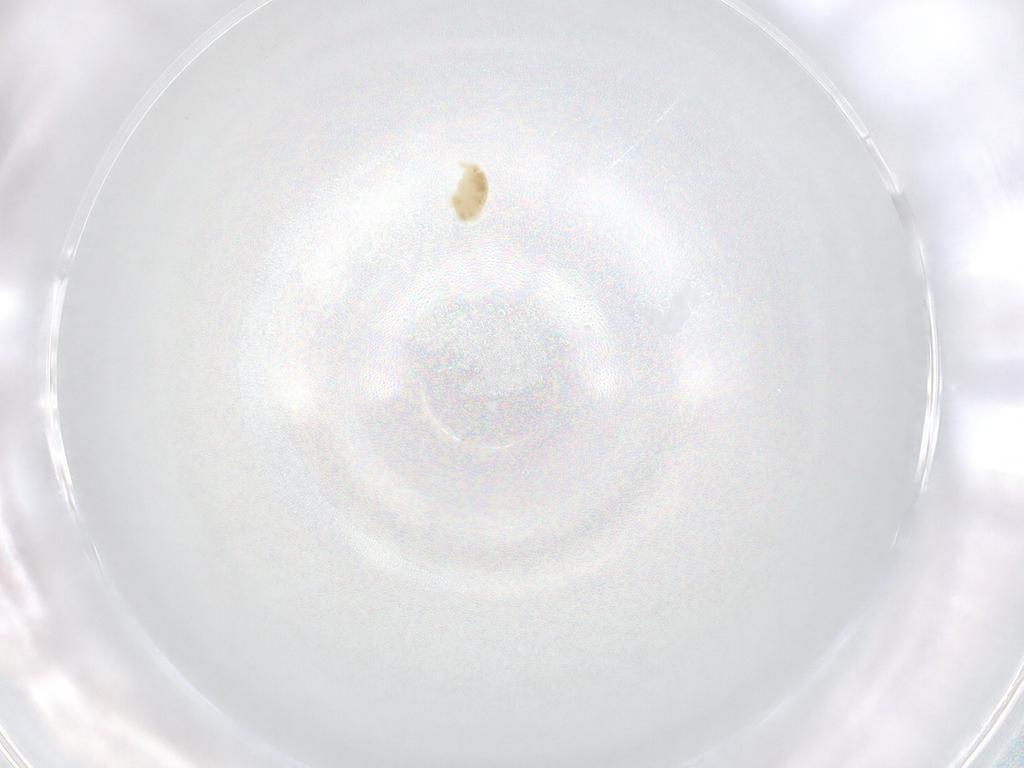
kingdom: Animalia
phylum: Arthropoda
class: Arachnida
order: Trombidiformes
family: Eupodidae
